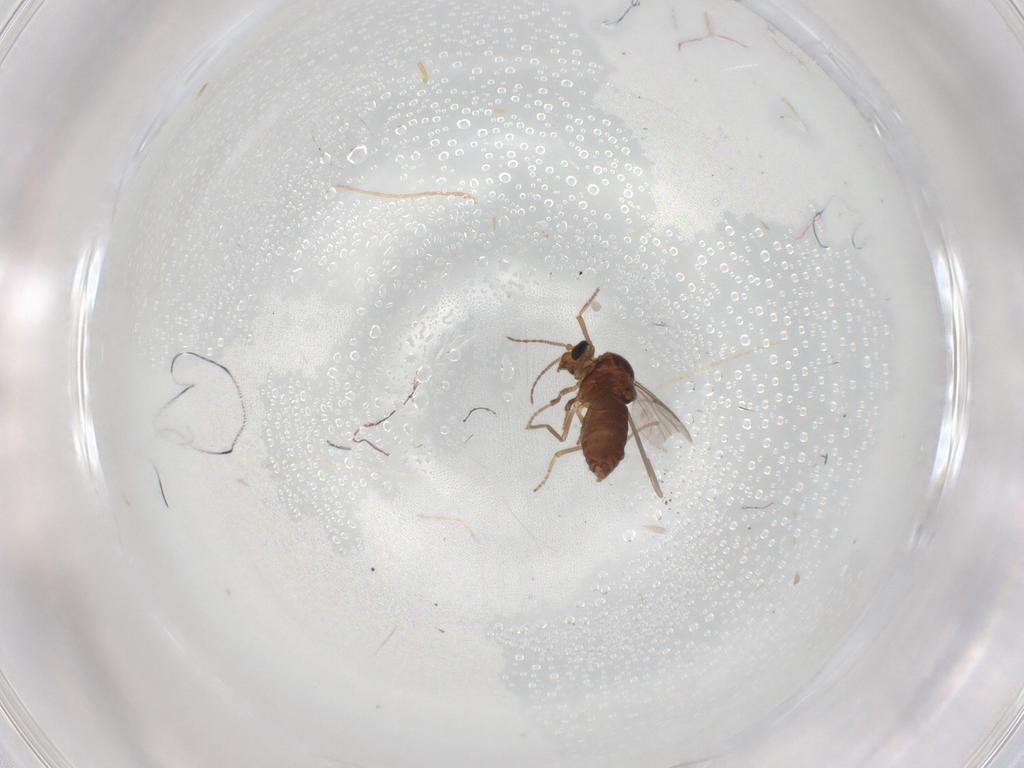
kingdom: Animalia
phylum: Arthropoda
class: Insecta
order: Diptera
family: Ceratopogonidae
